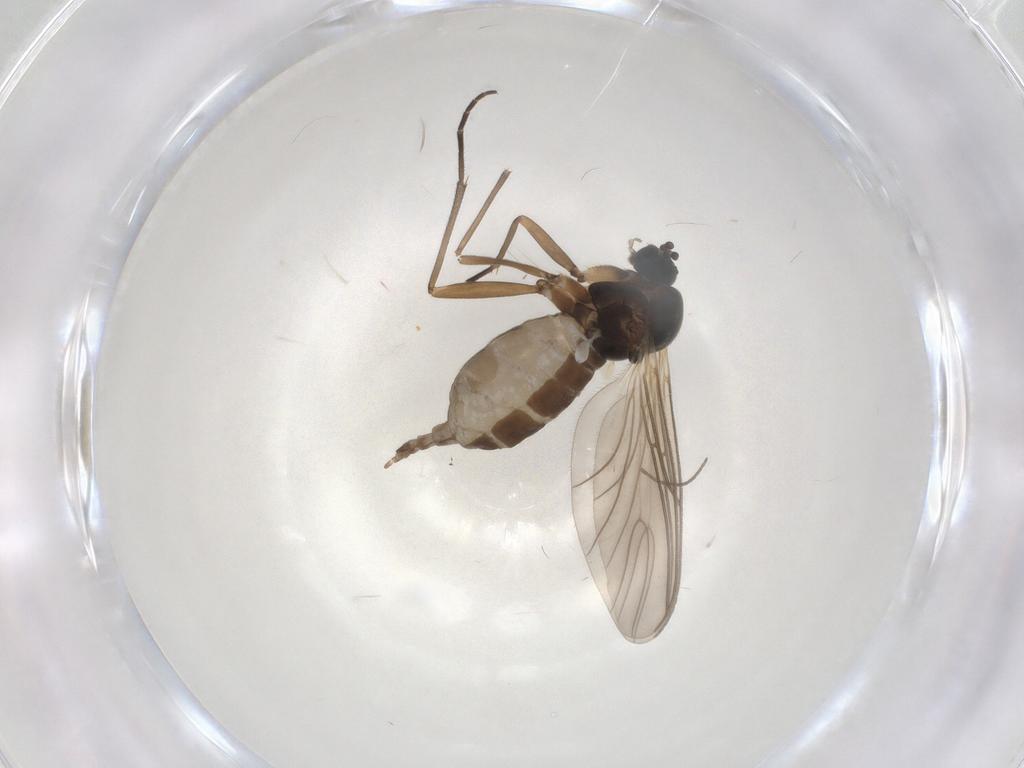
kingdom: Animalia
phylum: Arthropoda
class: Insecta
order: Diptera
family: Sciaridae
